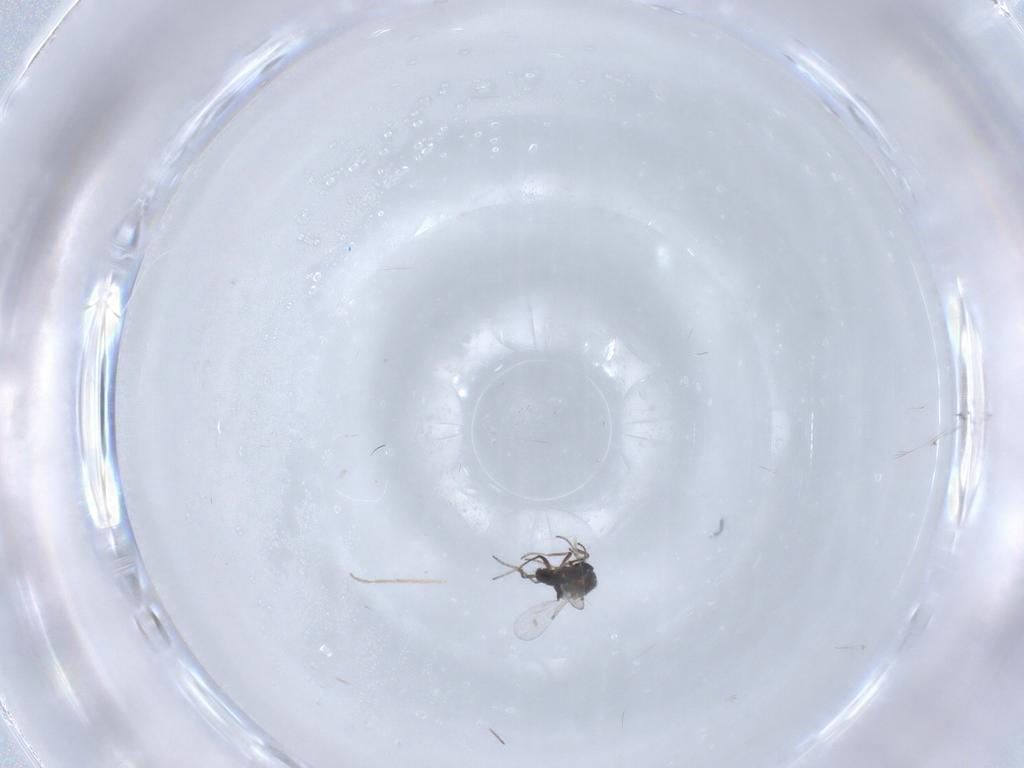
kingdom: Animalia
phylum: Arthropoda
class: Insecta
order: Diptera
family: Ceratopogonidae
